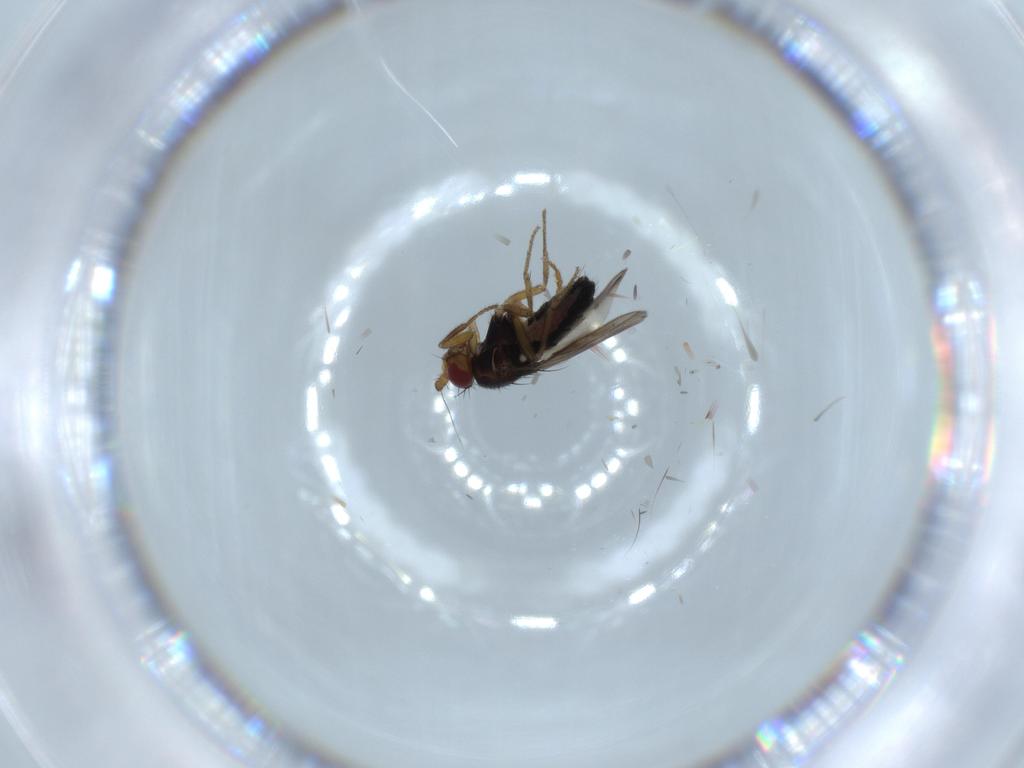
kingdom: Animalia
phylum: Arthropoda
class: Insecta
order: Diptera
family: Sphaeroceridae
